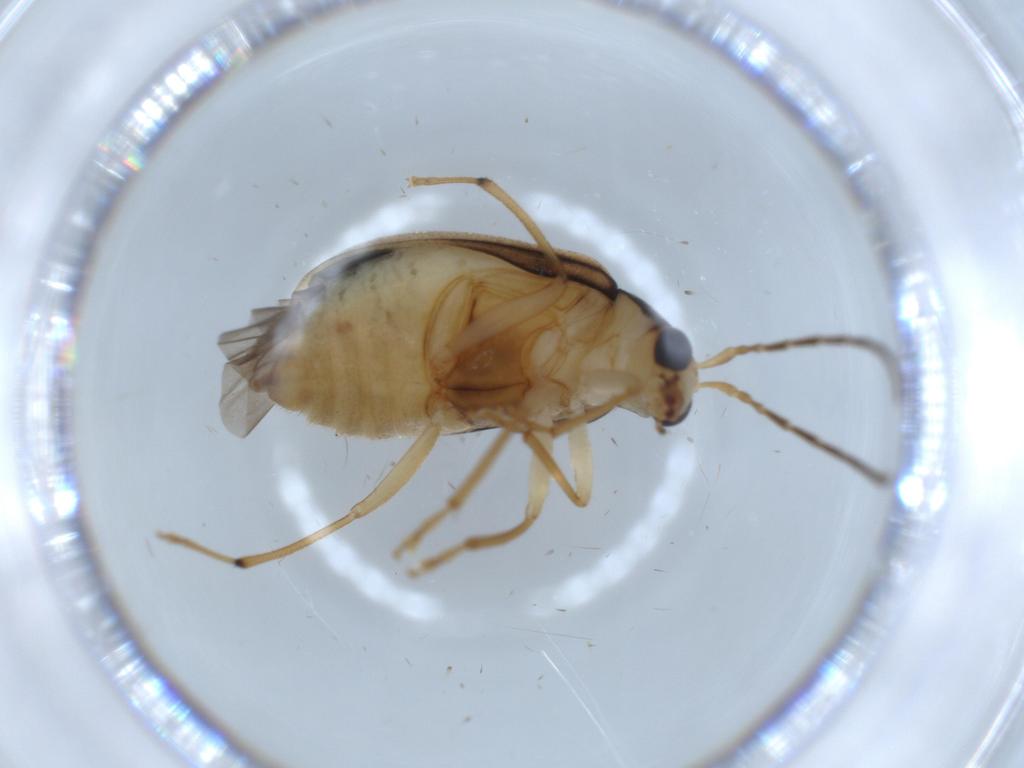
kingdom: Animalia
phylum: Arthropoda
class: Insecta
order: Coleoptera
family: Chrysomelidae
